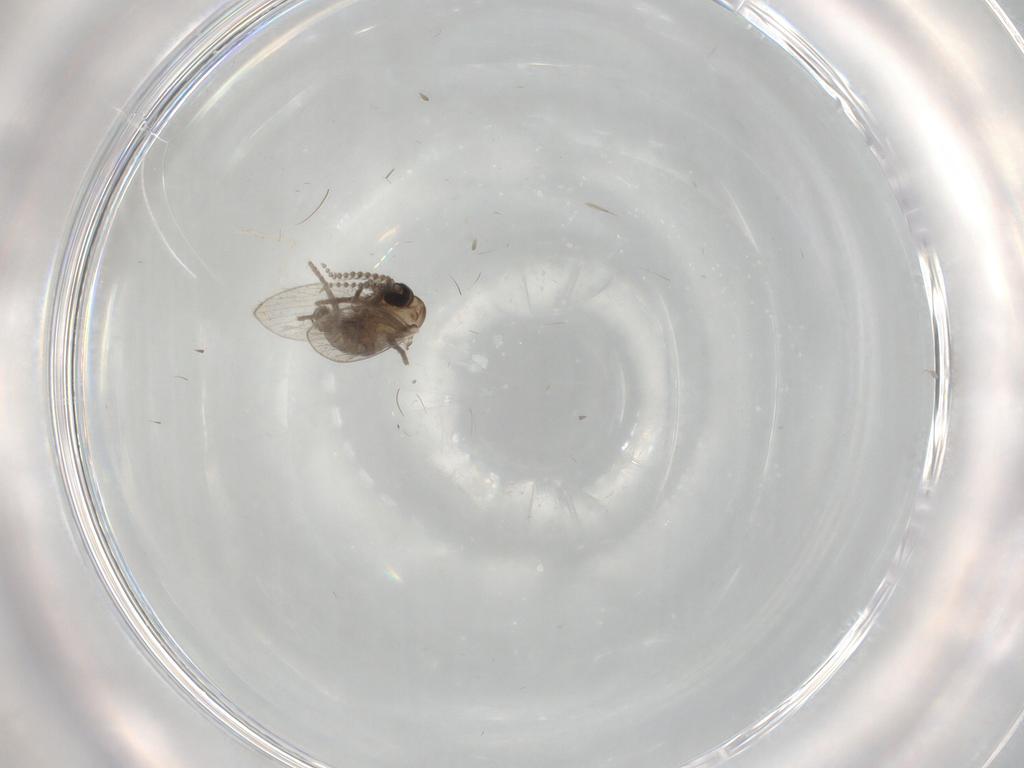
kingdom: Animalia
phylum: Arthropoda
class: Insecta
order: Diptera
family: Psychodidae
